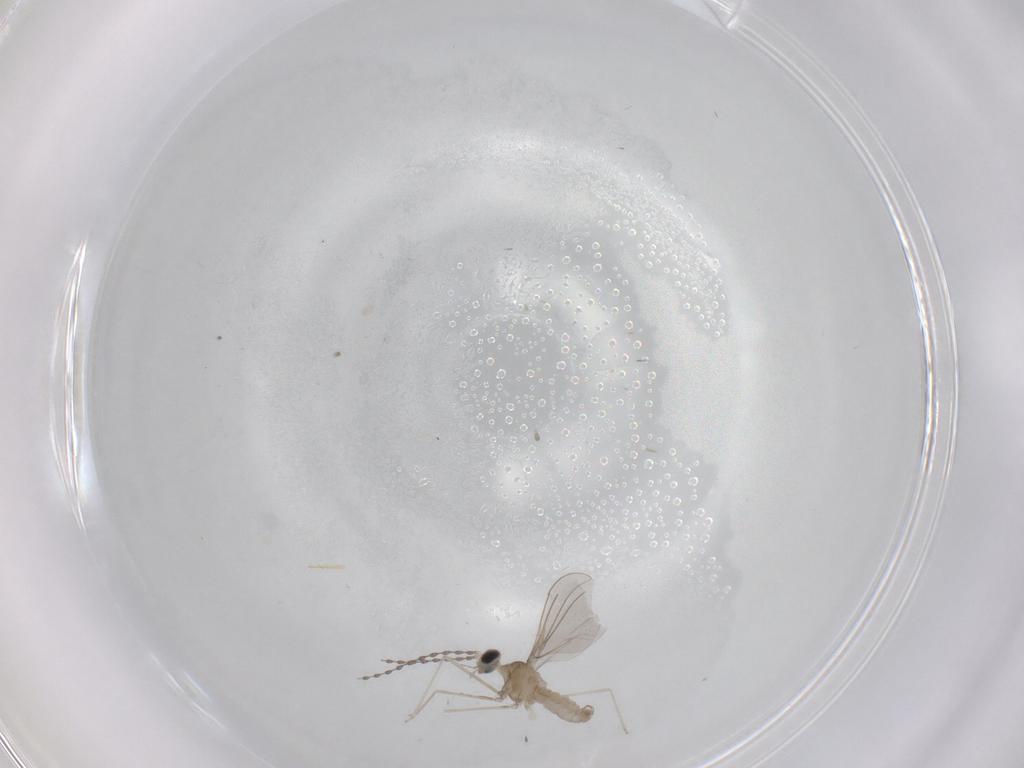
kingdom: Animalia
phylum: Arthropoda
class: Insecta
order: Diptera
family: Cecidomyiidae
